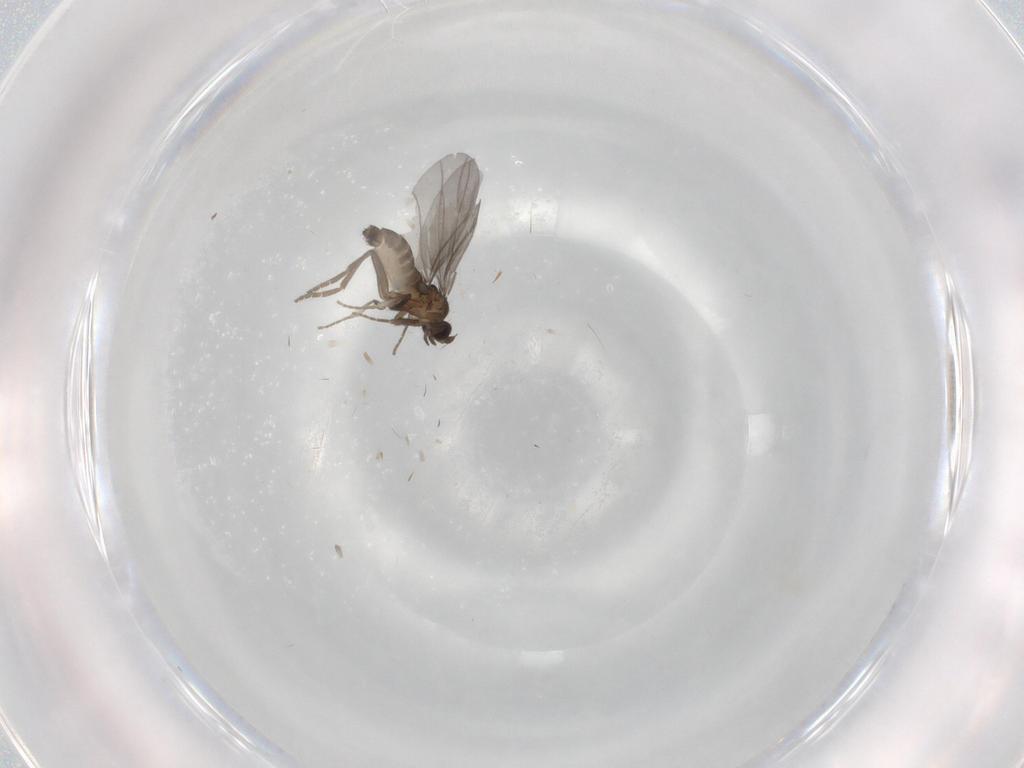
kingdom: Animalia
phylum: Arthropoda
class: Insecta
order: Diptera
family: Phoridae
